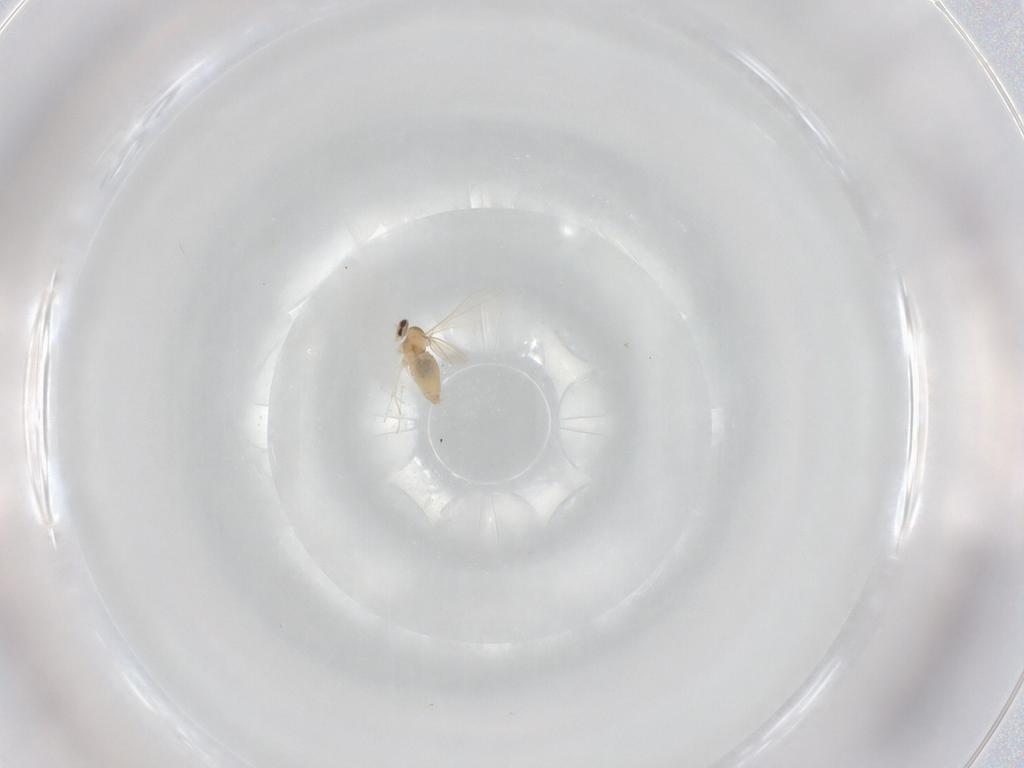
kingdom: Animalia
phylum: Arthropoda
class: Insecta
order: Diptera
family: Cecidomyiidae
